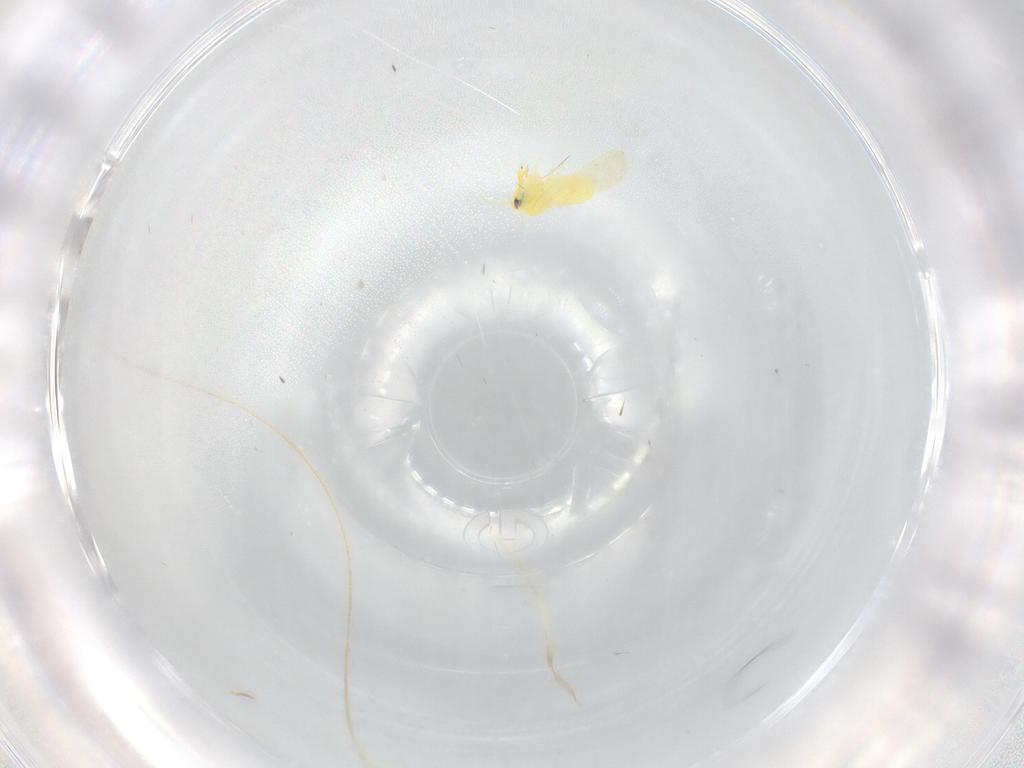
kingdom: Animalia
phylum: Arthropoda
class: Insecta
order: Hemiptera
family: Aleyrodidae
